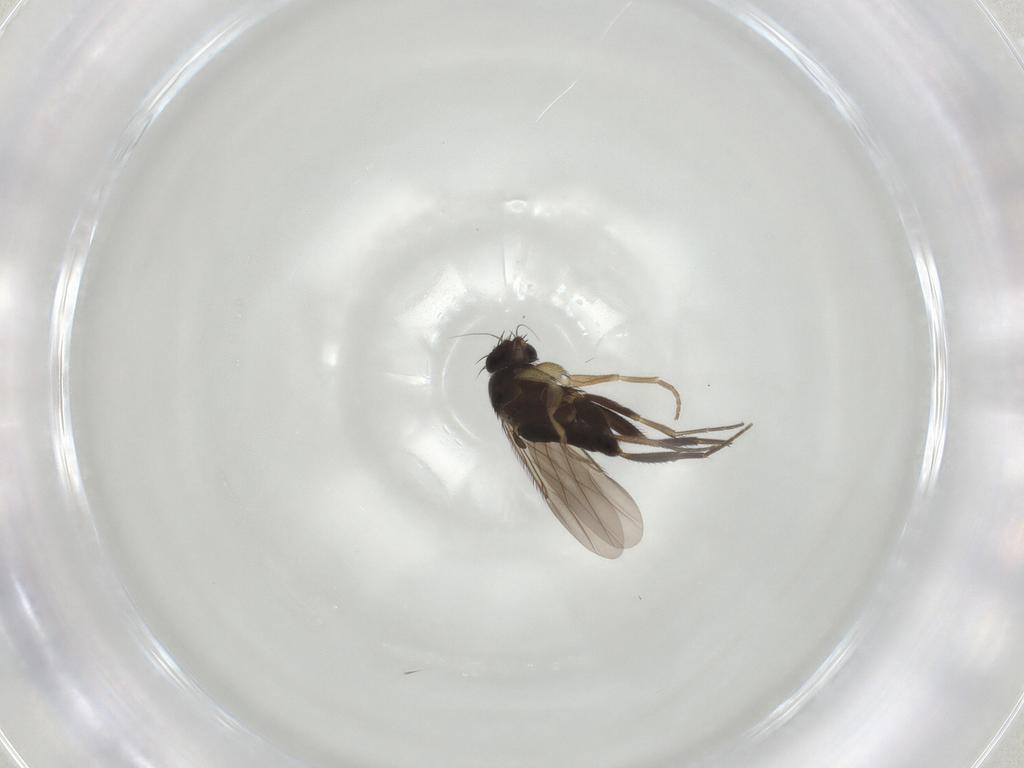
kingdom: Animalia
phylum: Arthropoda
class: Insecta
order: Diptera
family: Phoridae
